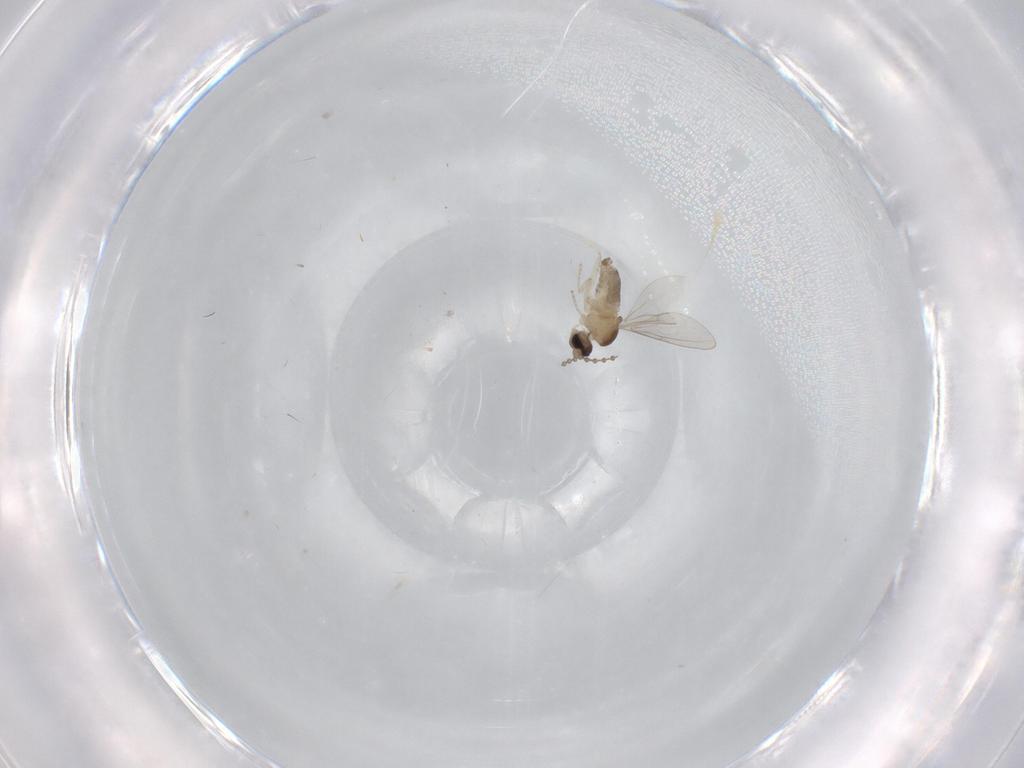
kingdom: Animalia
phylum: Arthropoda
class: Insecta
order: Diptera
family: Cecidomyiidae
